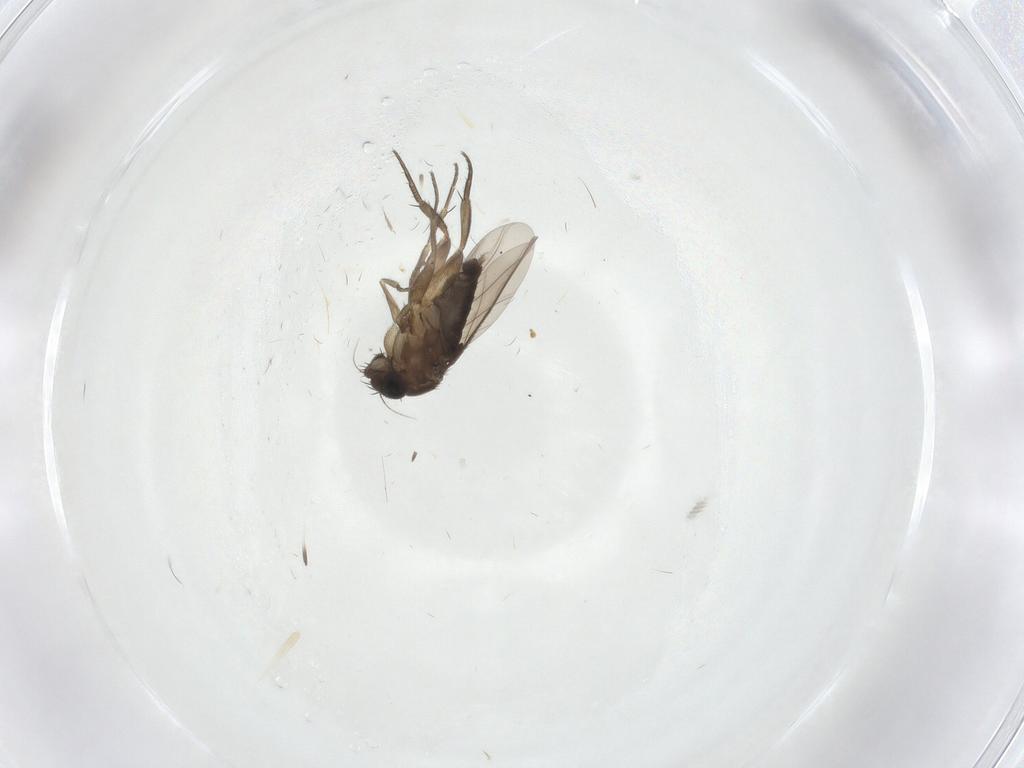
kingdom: Animalia
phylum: Arthropoda
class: Insecta
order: Diptera
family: Phoridae
